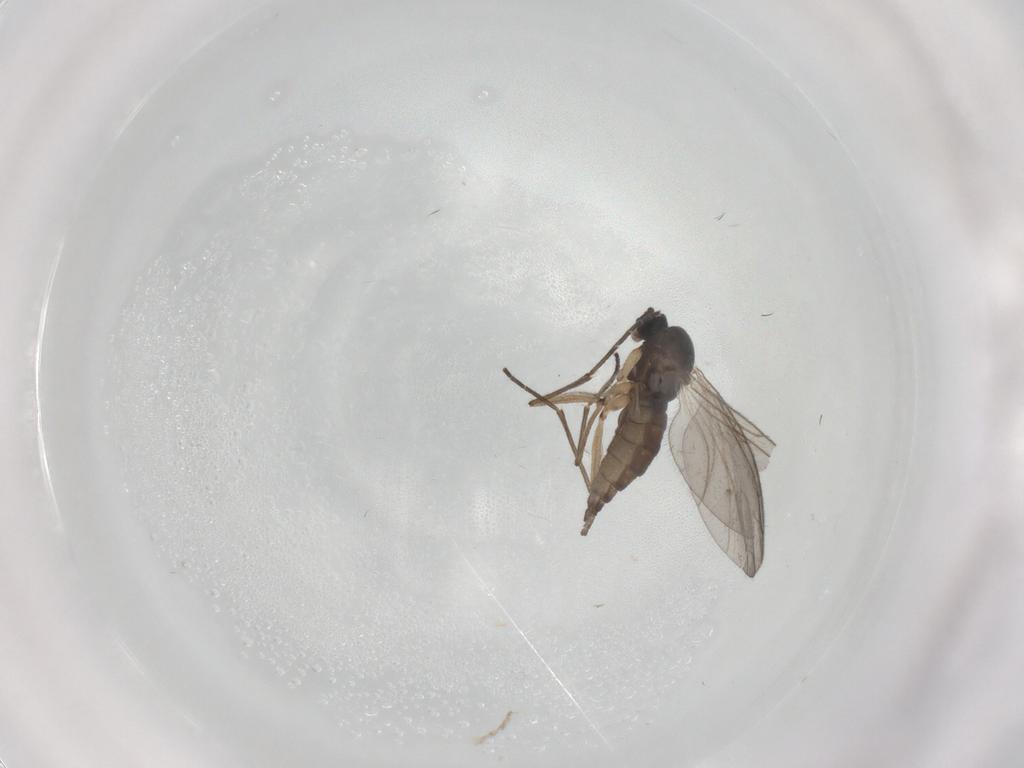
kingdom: Animalia
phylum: Arthropoda
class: Insecta
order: Diptera
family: Sciaridae
